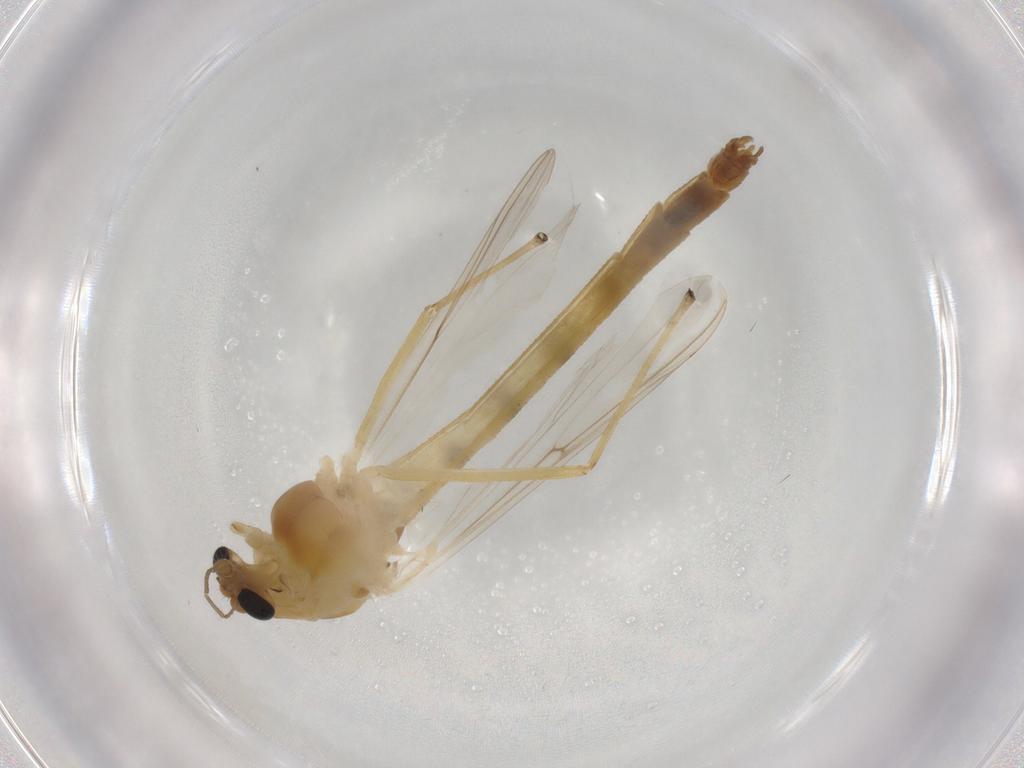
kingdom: Animalia
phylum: Arthropoda
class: Insecta
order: Diptera
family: Chironomidae
